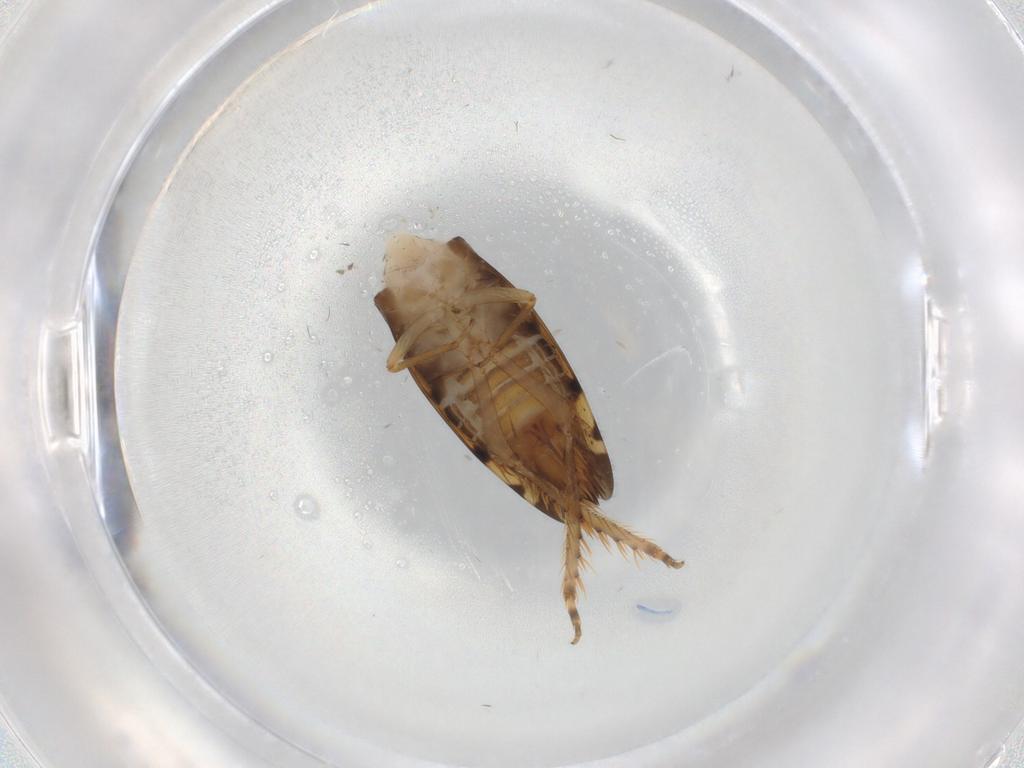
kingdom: Animalia
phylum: Arthropoda
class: Insecta
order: Hemiptera
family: Cicadellidae
